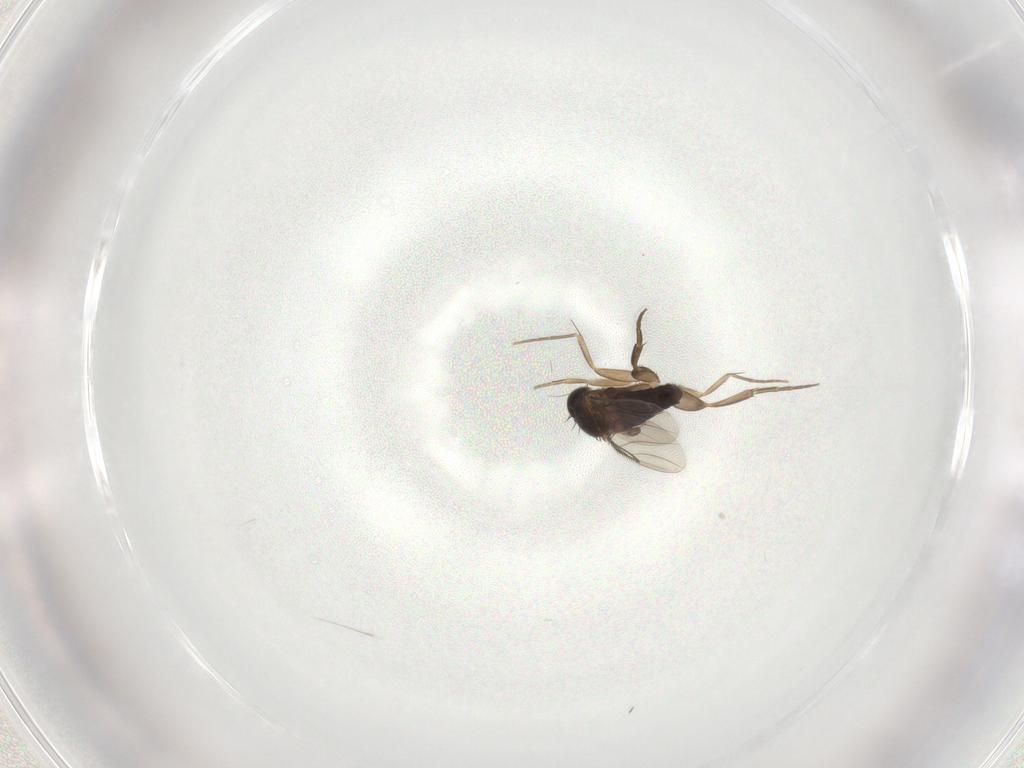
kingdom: Animalia
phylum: Arthropoda
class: Insecta
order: Diptera
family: Phoridae
